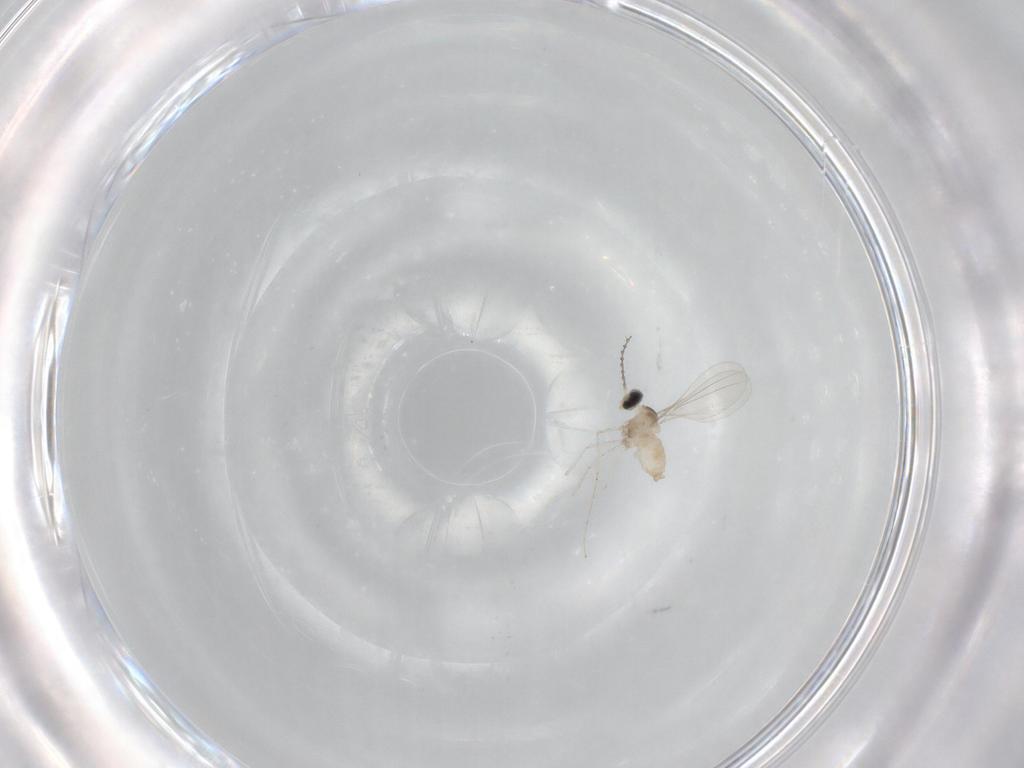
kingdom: Animalia
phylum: Arthropoda
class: Insecta
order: Diptera
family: Cecidomyiidae
